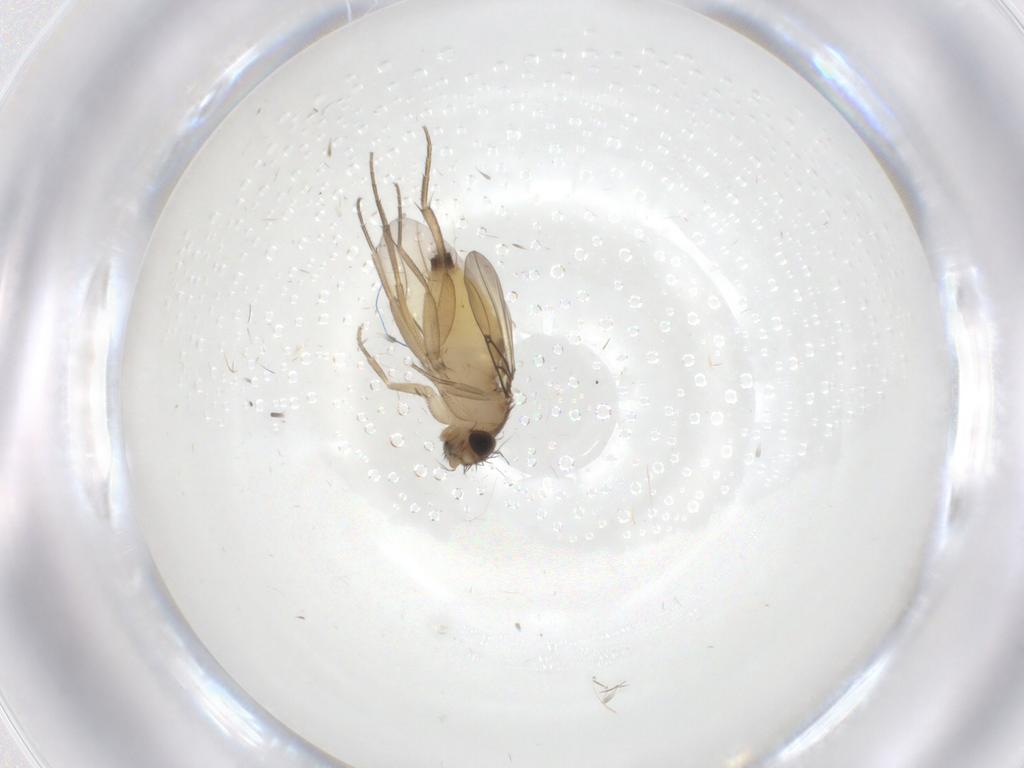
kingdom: Animalia
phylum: Arthropoda
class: Insecta
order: Diptera
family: Phoridae
